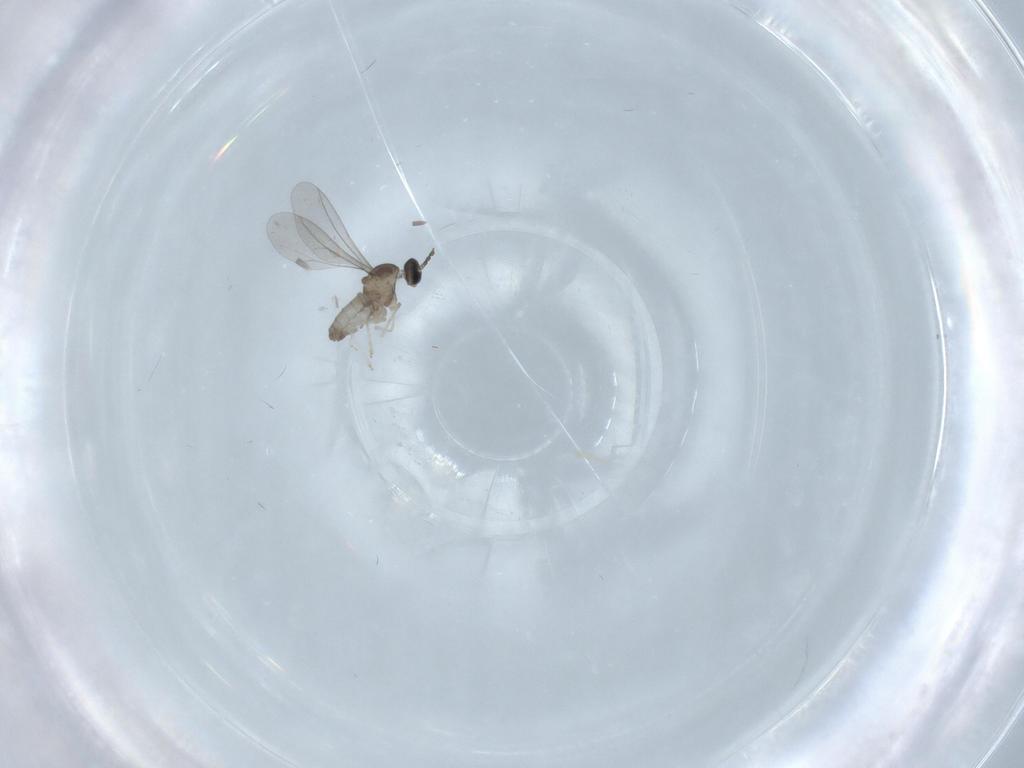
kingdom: Animalia
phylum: Arthropoda
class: Insecta
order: Diptera
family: Cecidomyiidae
